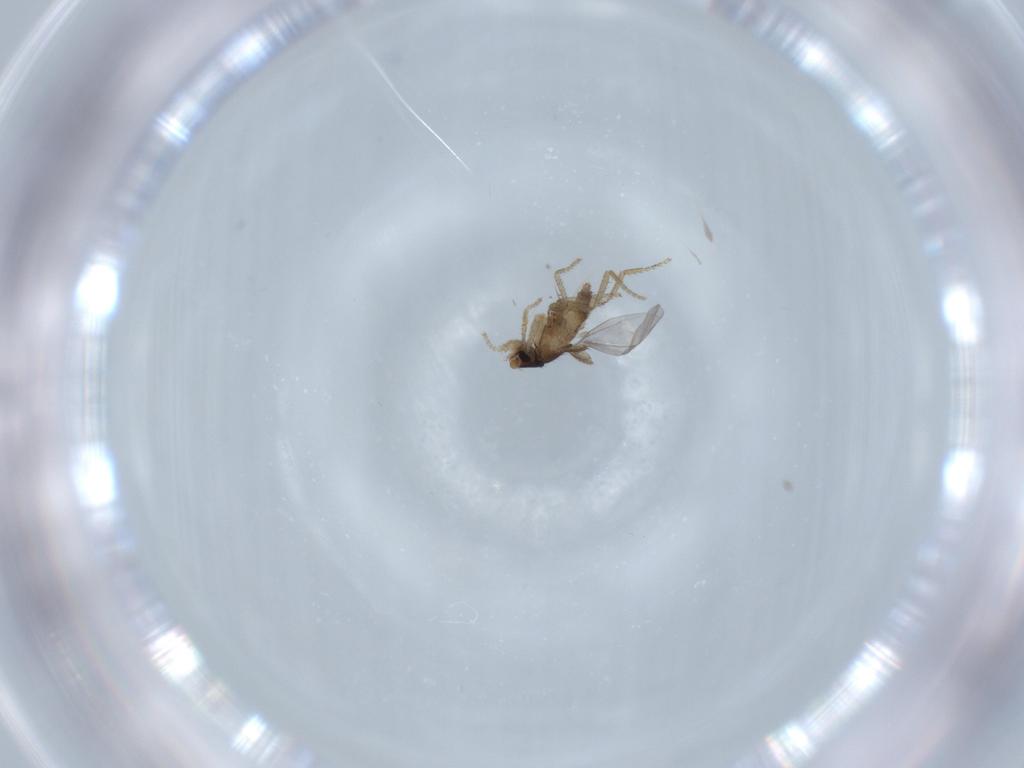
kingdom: Animalia
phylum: Arthropoda
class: Insecta
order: Diptera
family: Phoridae
